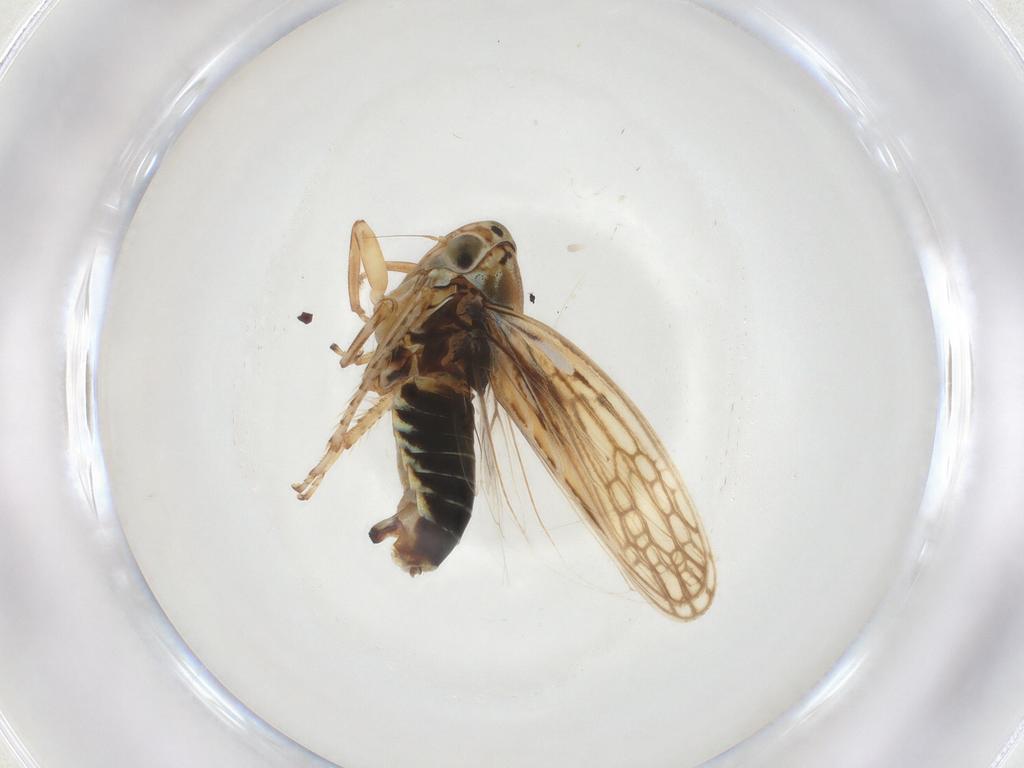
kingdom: Animalia
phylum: Arthropoda
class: Insecta
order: Hemiptera
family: Cicadellidae
